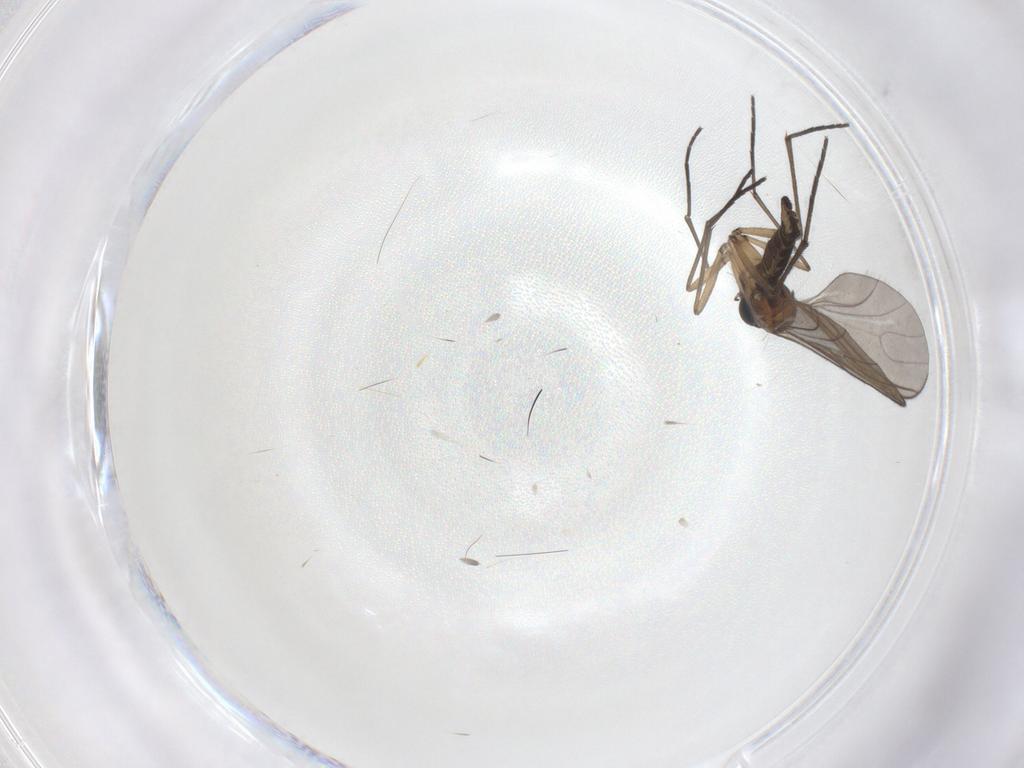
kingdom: Animalia
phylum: Arthropoda
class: Insecta
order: Diptera
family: Sciaridae
